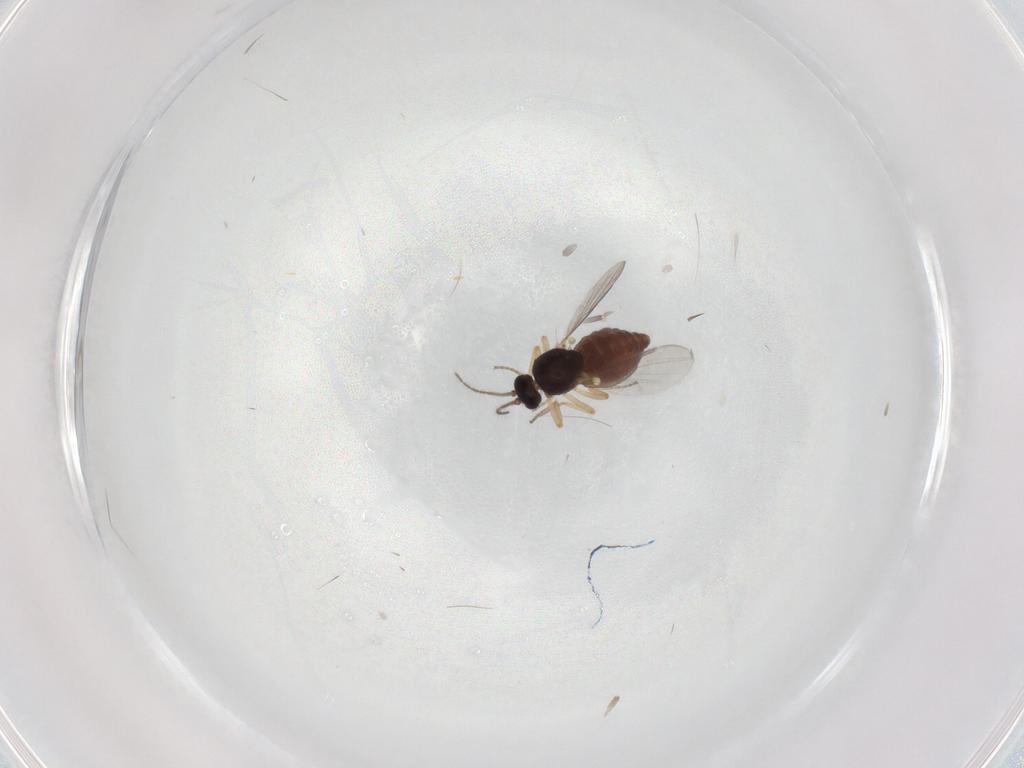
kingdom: Animalia
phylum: Arthropoda
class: Insecta
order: Diptera
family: Ceratopogonidae
